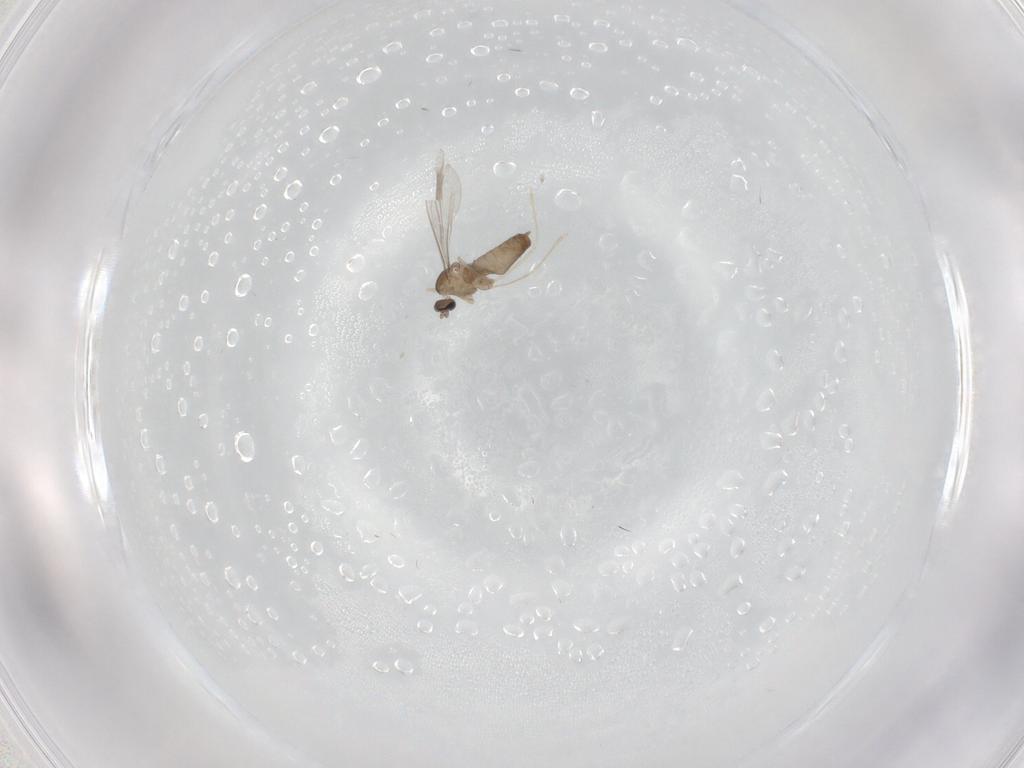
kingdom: Animalia
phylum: Arthropoda
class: Insecta
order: Diptera
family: Cecidomyiidae
